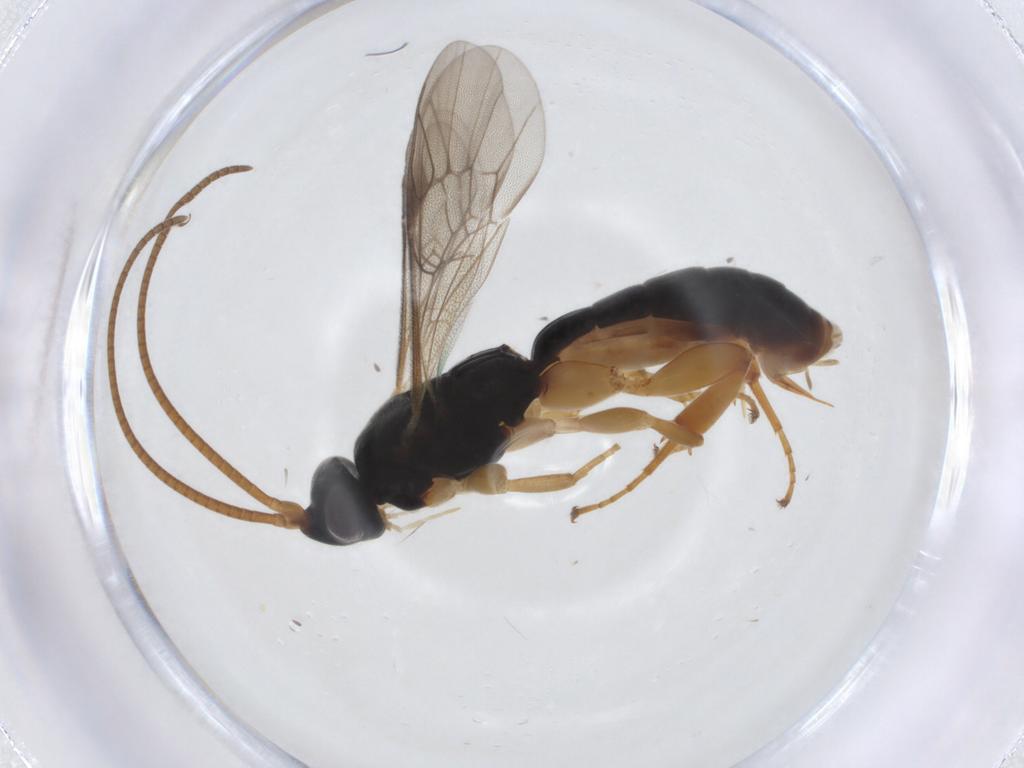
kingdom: Animalia
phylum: Arthropoda
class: Insecta
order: Hymenoptera
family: Ichneumonidae
